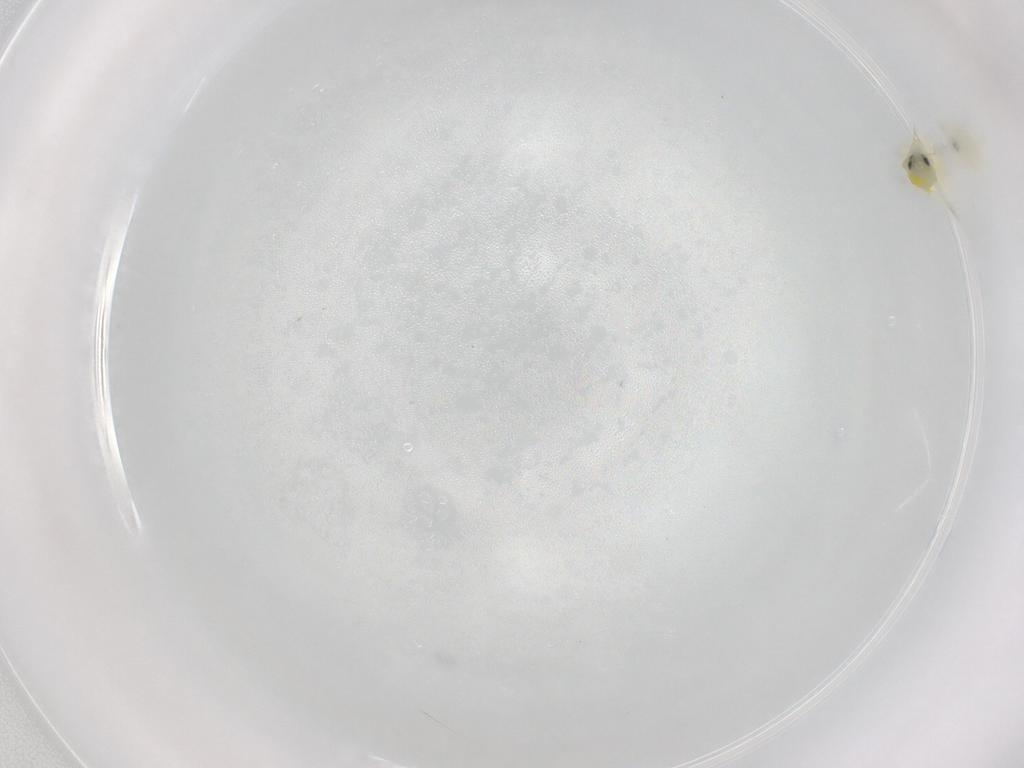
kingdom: Animalia
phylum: Arthropoda
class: Insecta
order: Hemiptera
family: Aleyrodidae
